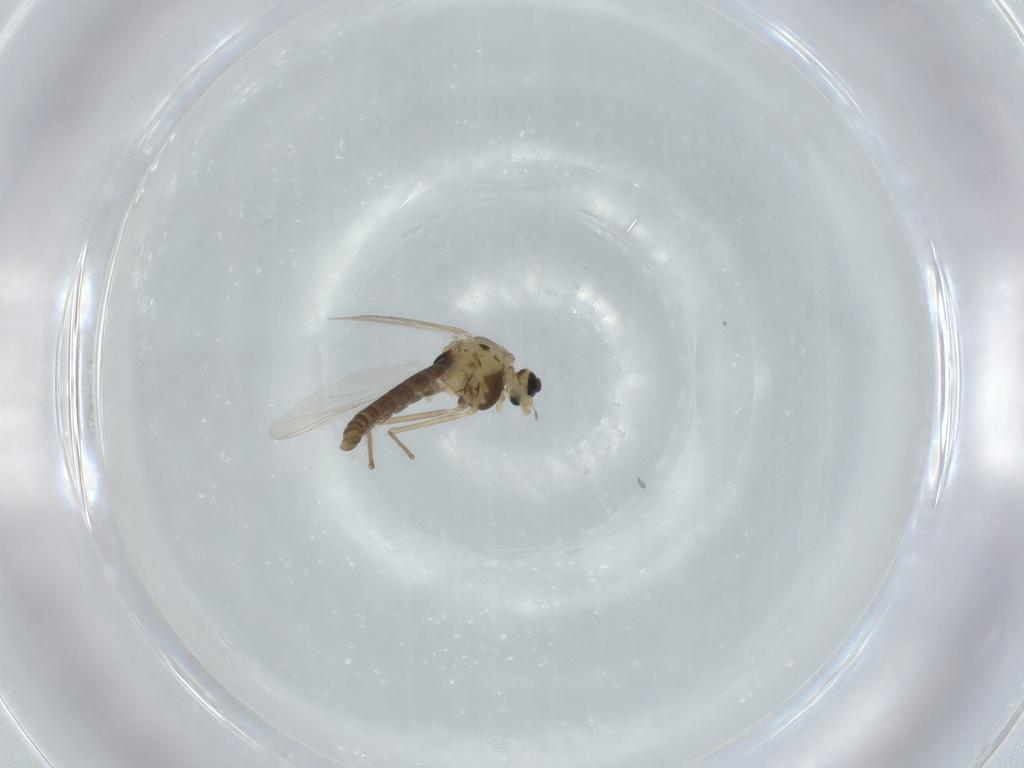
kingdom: Animalia
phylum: Arthropoda
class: Insecta
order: Diptera
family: Chironomidae
